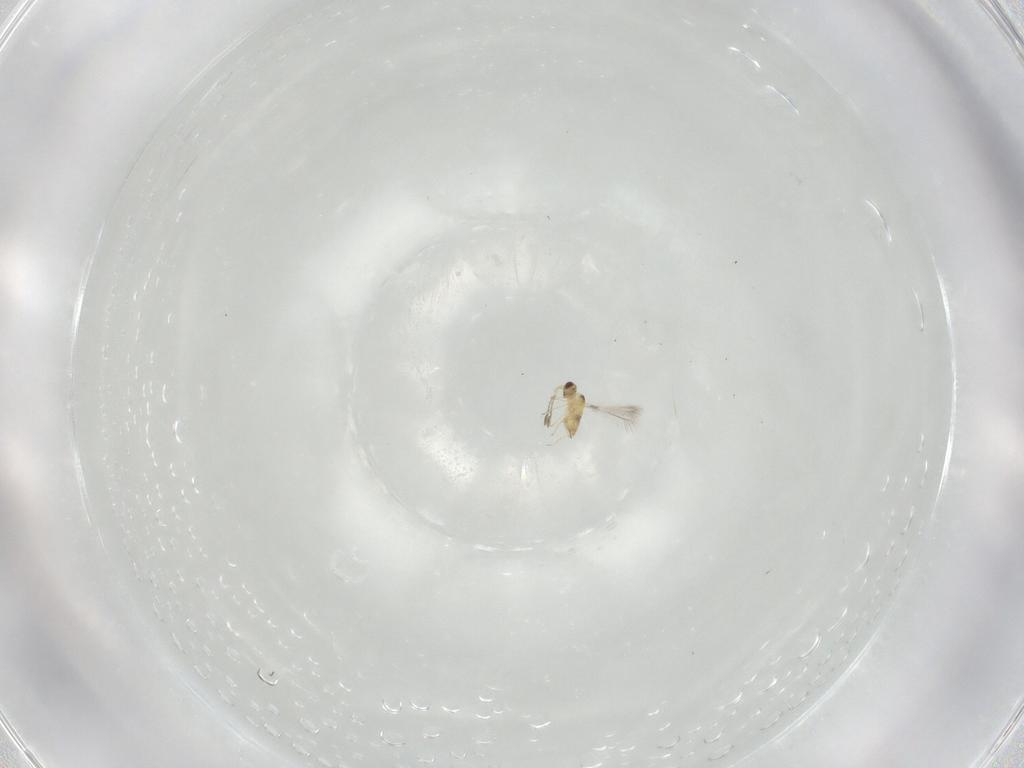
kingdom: Animalia
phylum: Arthropoda
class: Insecta
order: Hymenoptera
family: Mymaridae
